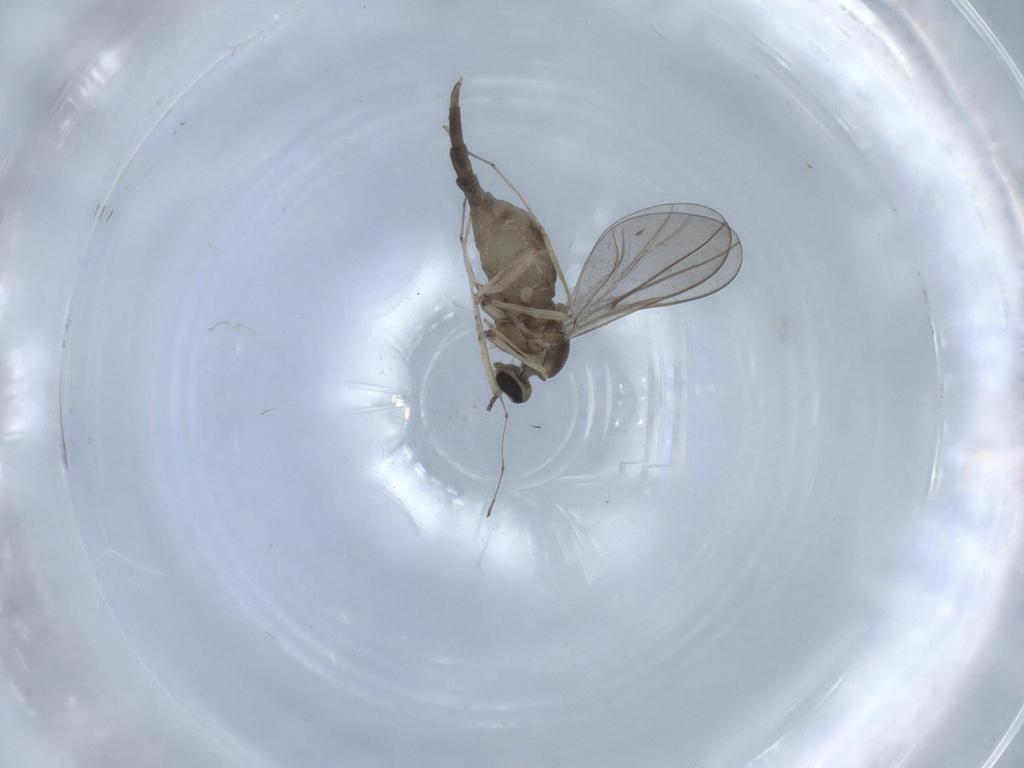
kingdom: Animalia
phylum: Arthropoda
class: Insecta
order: Diptera
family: Cecidomyiidae
